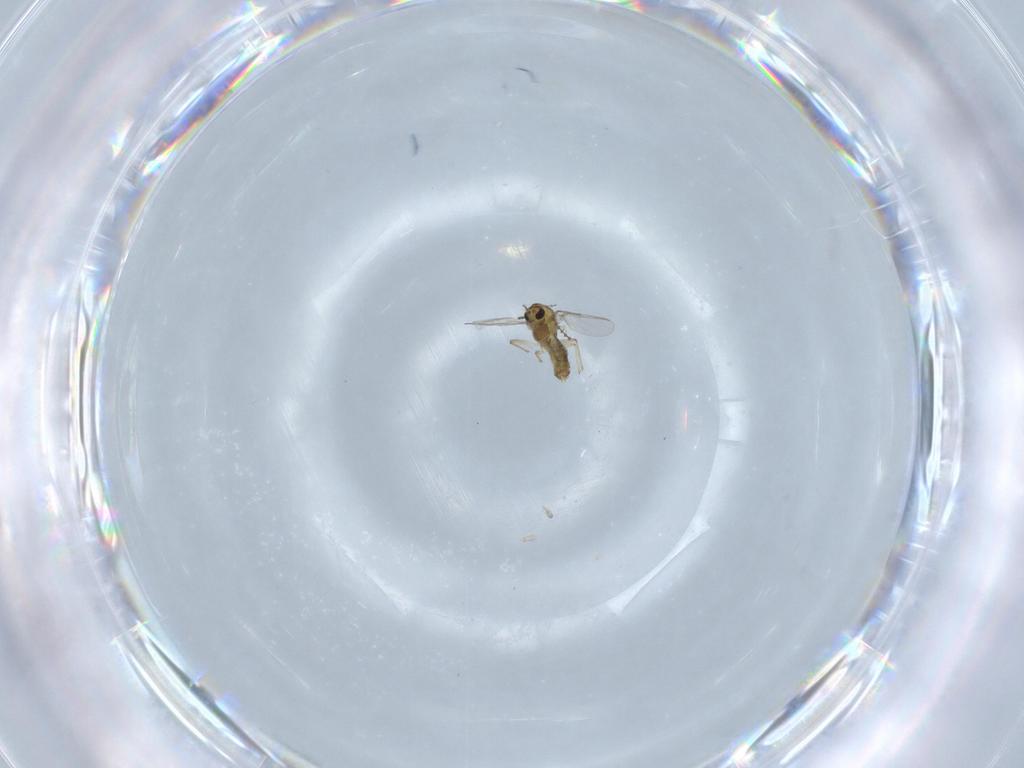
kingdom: Animalia
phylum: Arthropoda
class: Insecta
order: Diptera
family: Chironomidae
